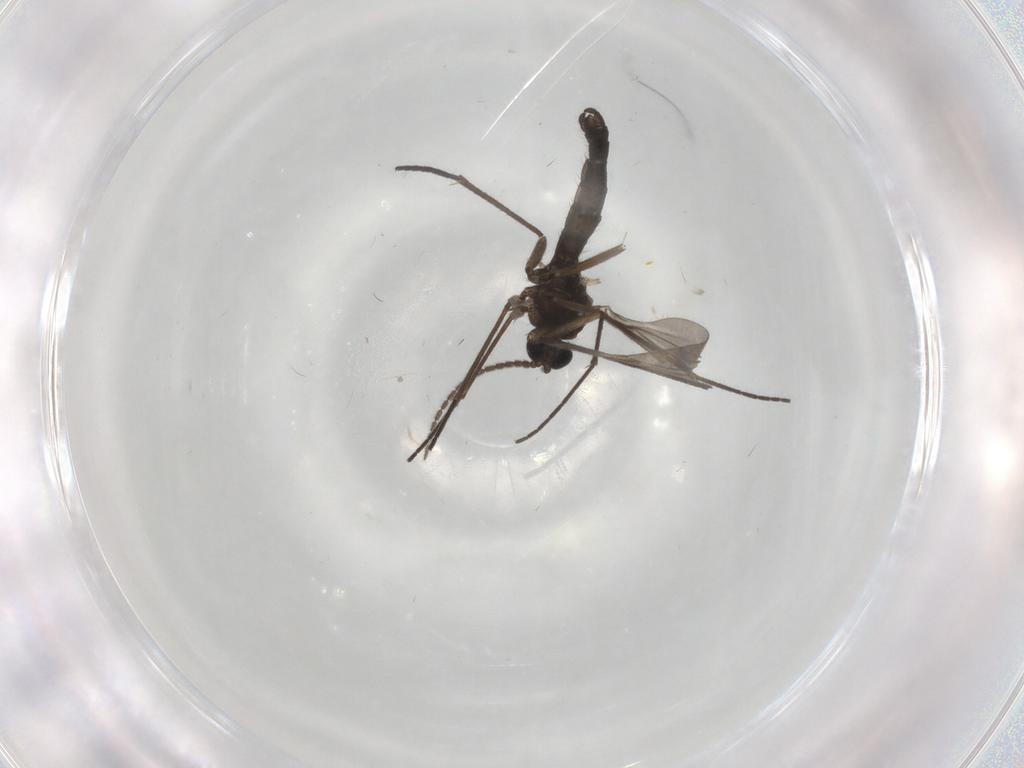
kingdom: Animalia
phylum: Arthropoda
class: Insecta
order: Diptera
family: Sciaridae
